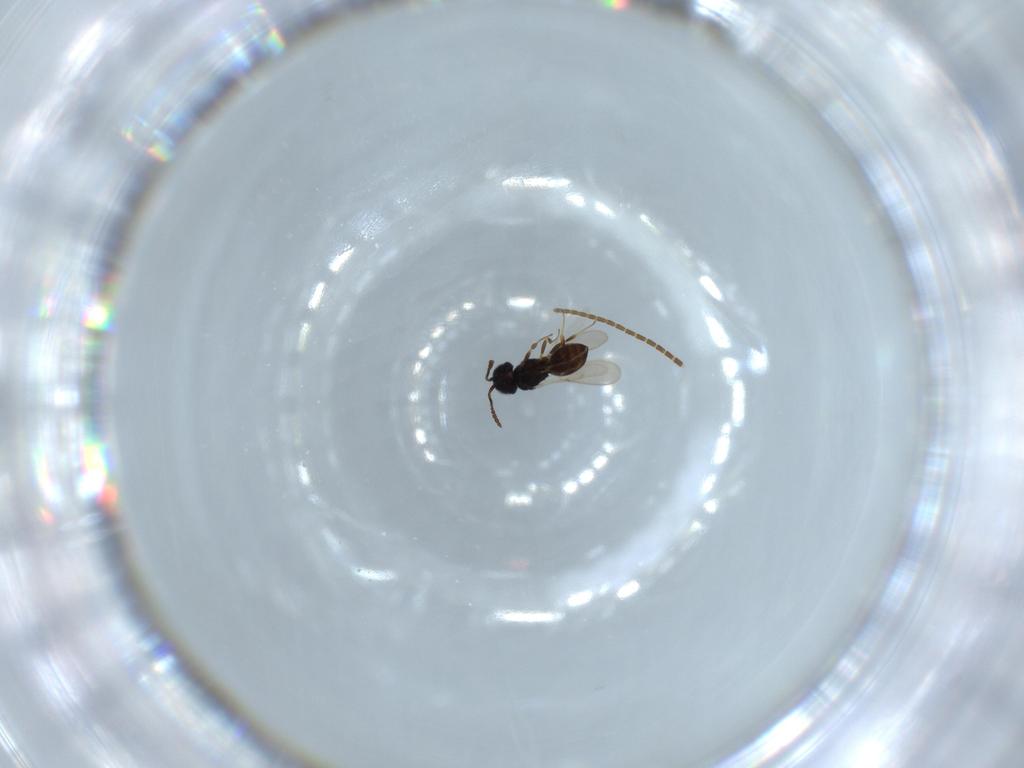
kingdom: Animalia
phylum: Arthropoda
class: Insecta
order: Hymenoptera
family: Scelionidae
